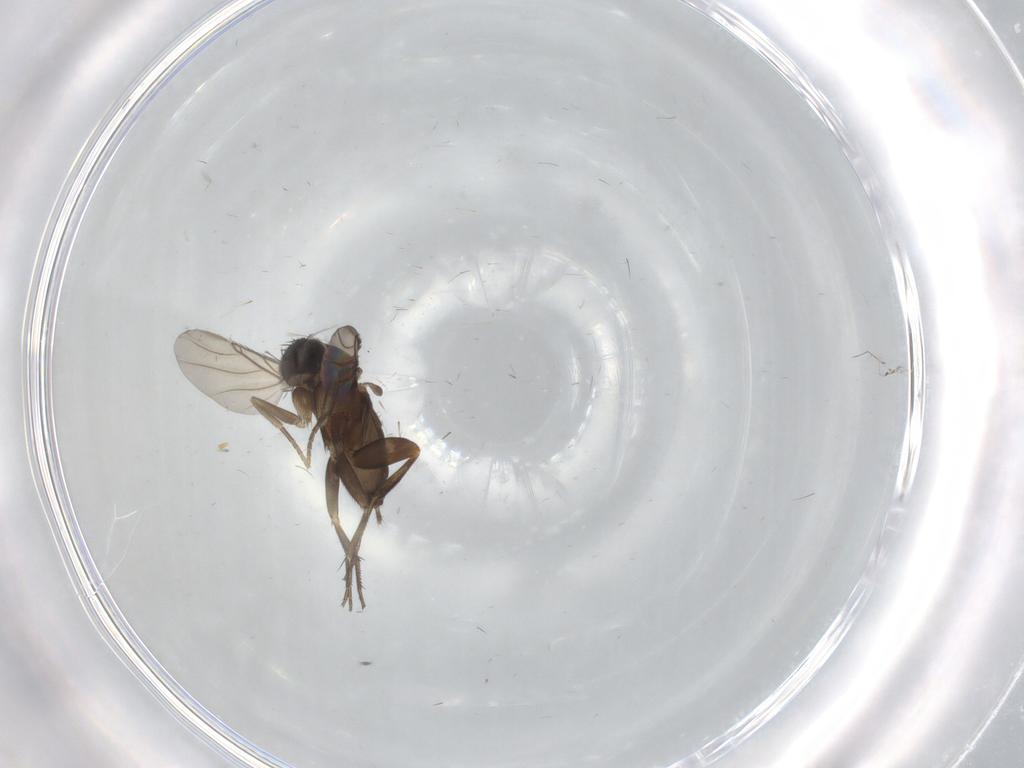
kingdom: Animalia
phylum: Arthropoda
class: Insecta
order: Diptera
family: Phoridae
